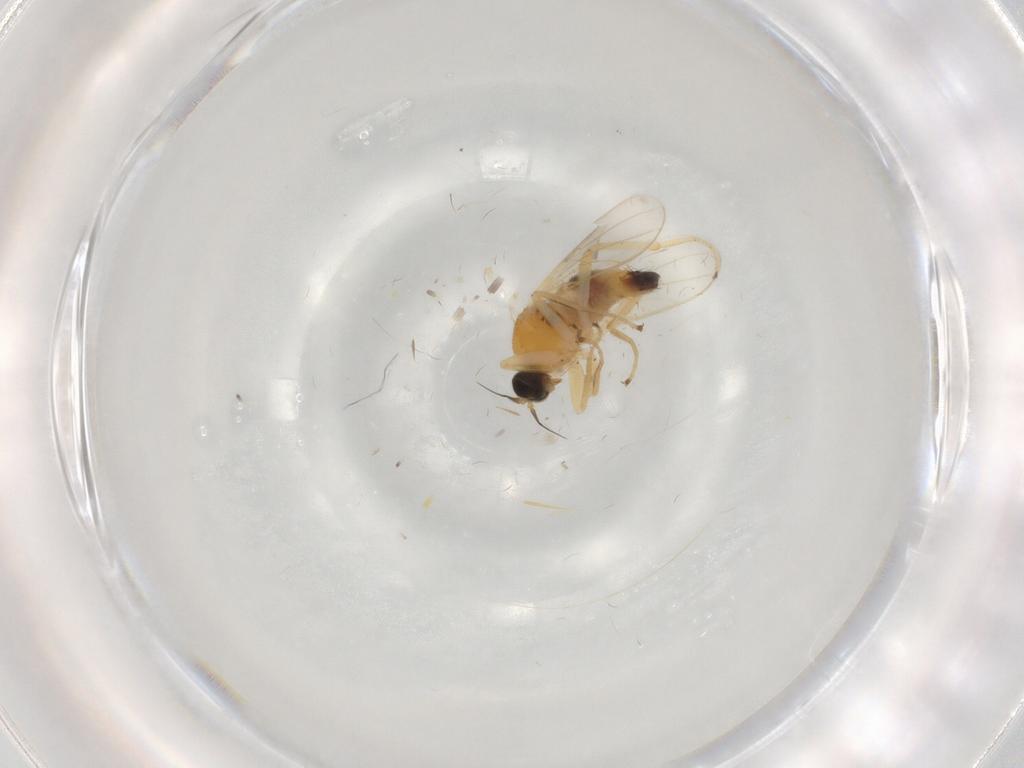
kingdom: Animalia
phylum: Arthropoda
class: Insecta
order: Diptera
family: Hybotidae
